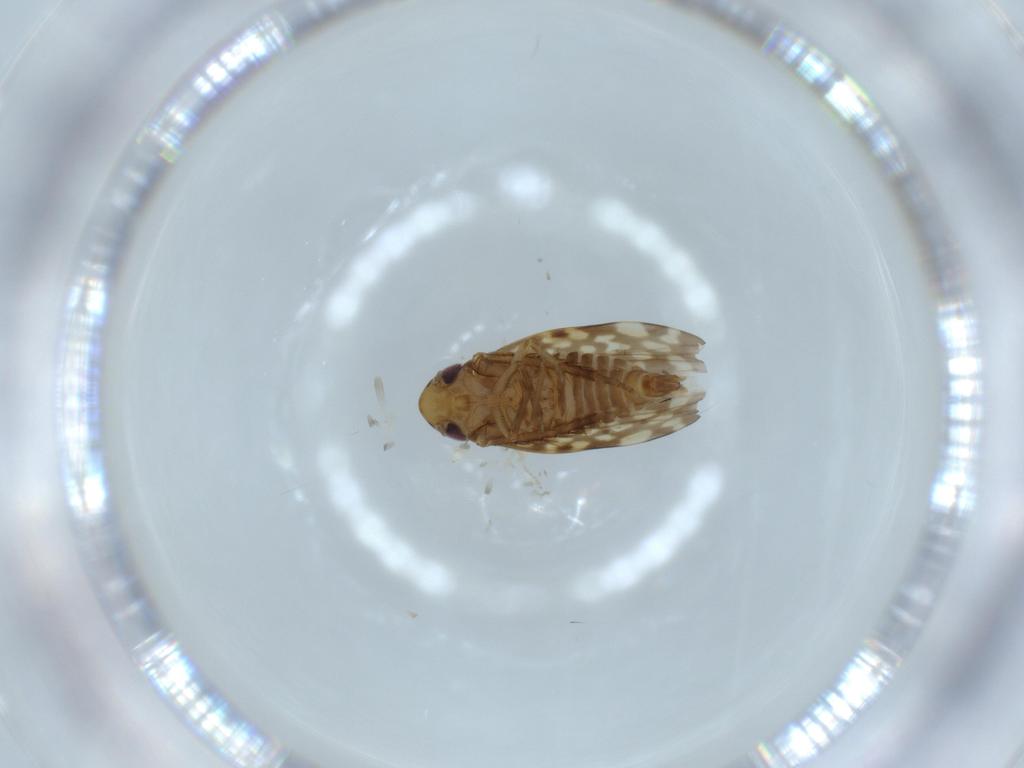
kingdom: Animalia
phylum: Arthropoda
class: Insecta
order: Hemiptera
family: Cicadellidae
